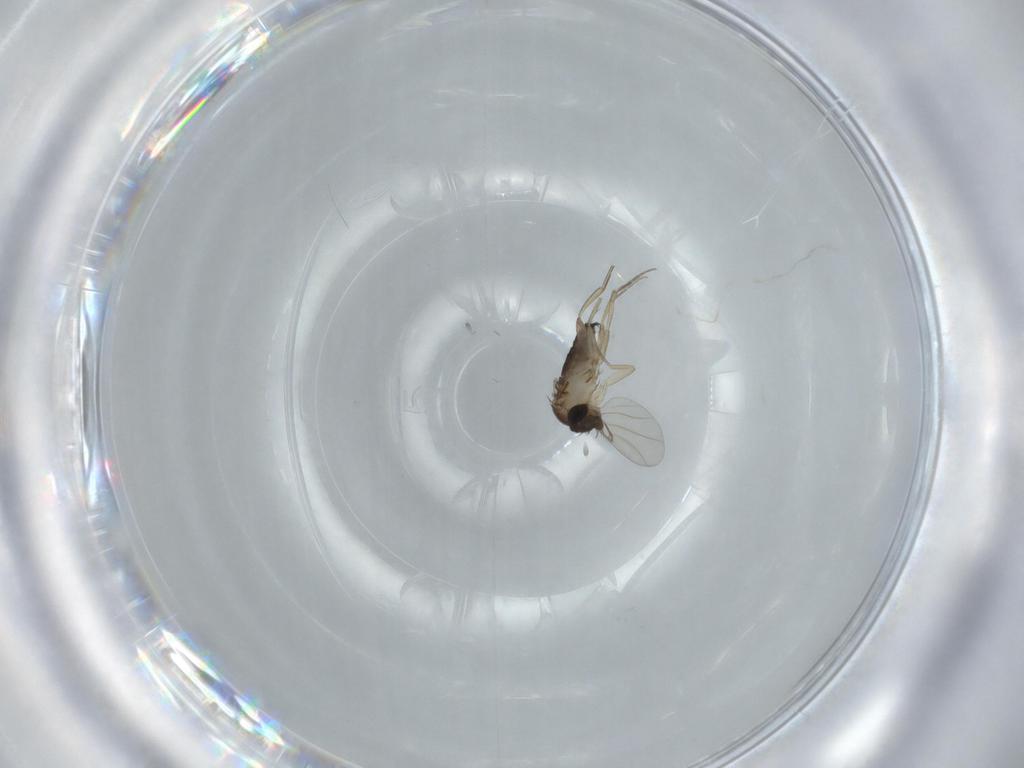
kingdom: Animalia
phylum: Arthropoda
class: Insecta
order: Diptera
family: Phoridae
